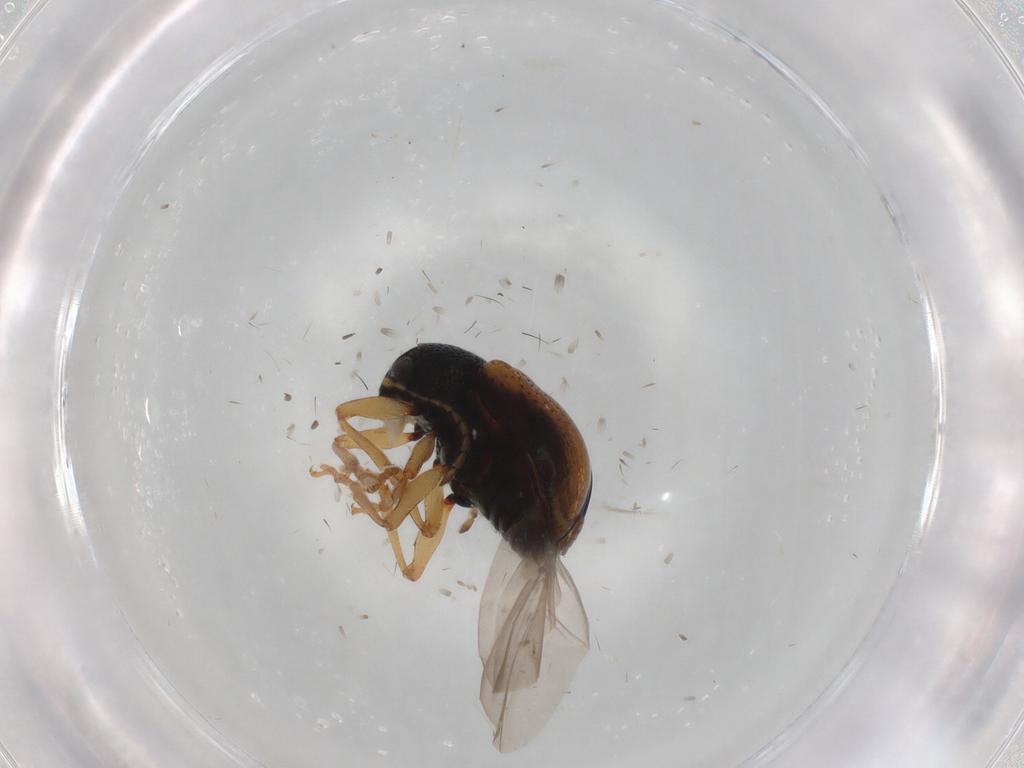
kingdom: Animalia
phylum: Arthropoda
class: Insecta
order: Coleoptera
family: Chrysomelidae
